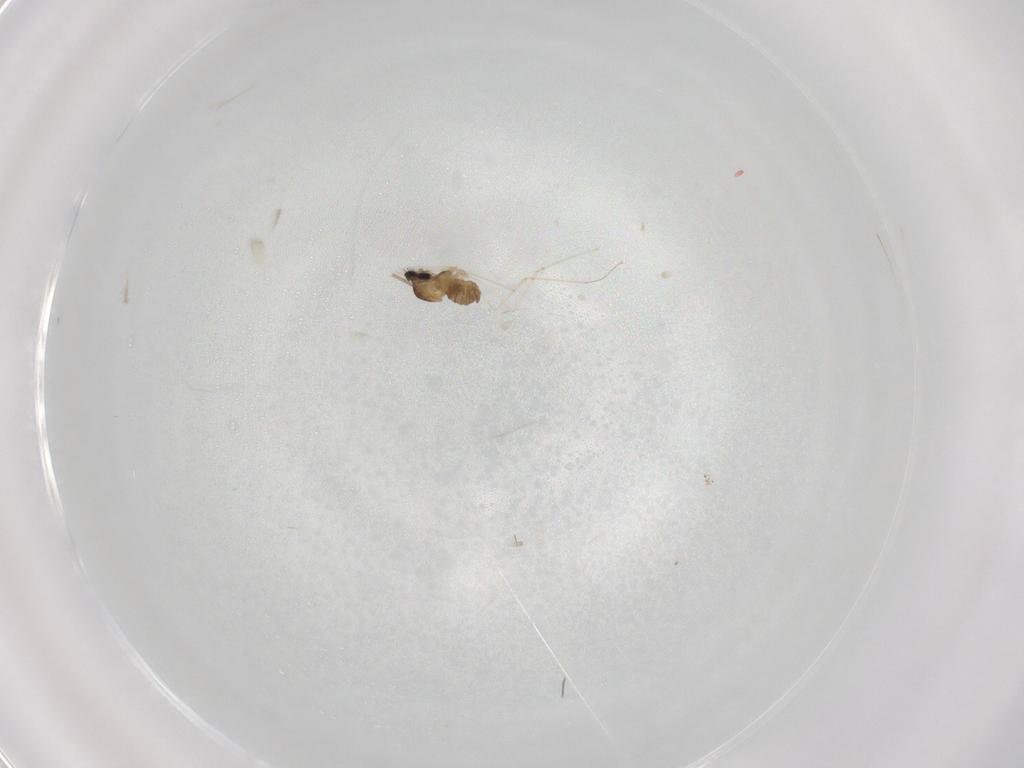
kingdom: Animalia
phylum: Arthropoda
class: Insecta
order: Diptera
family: Cecidomyiidae
